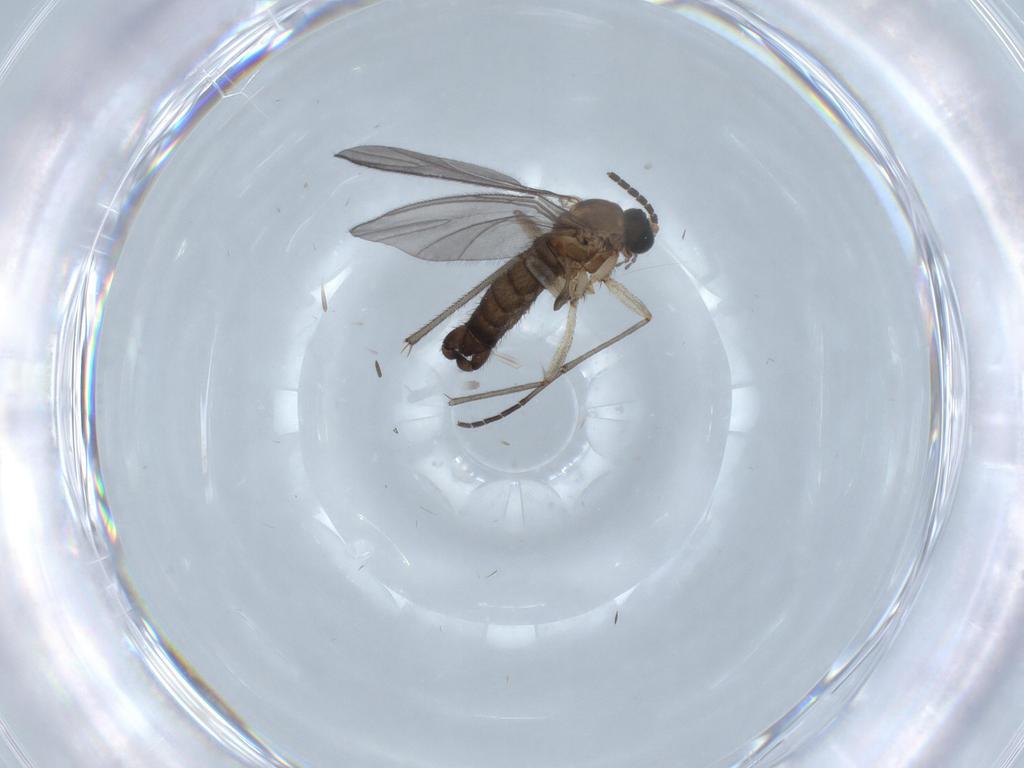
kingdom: Animalia
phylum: Arthropoda
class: Insecta
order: Diptera
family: Sciaridae
